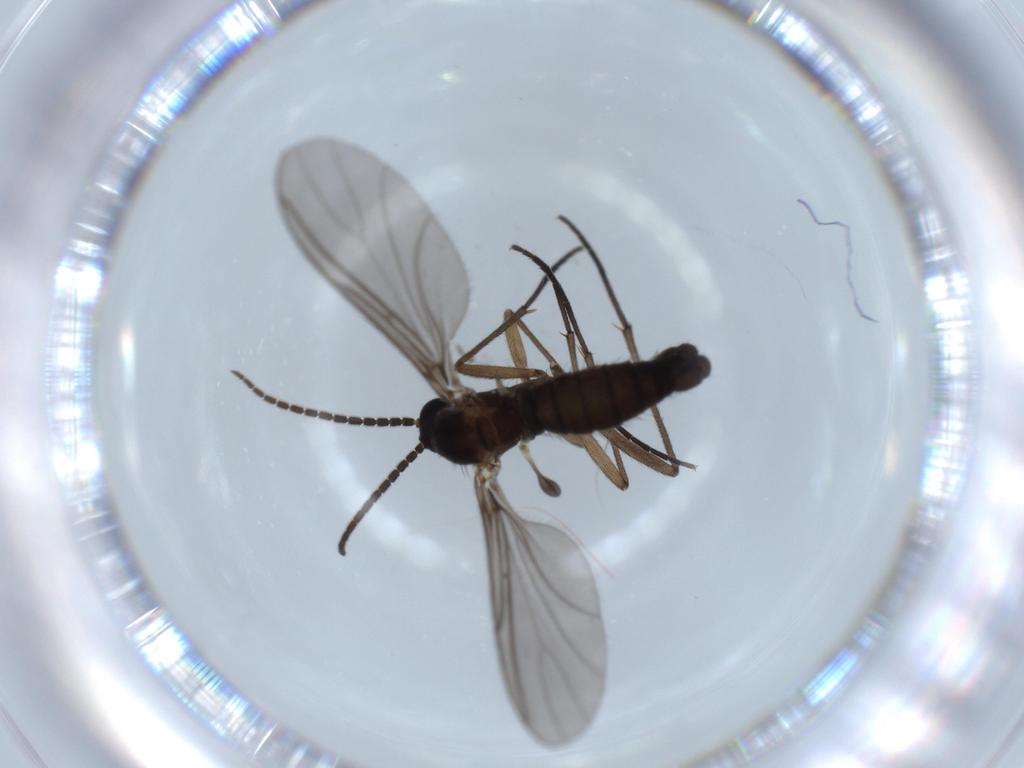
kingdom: Animalia
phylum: Arthropoda
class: Insecta
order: Diptera
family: Sciaridae
